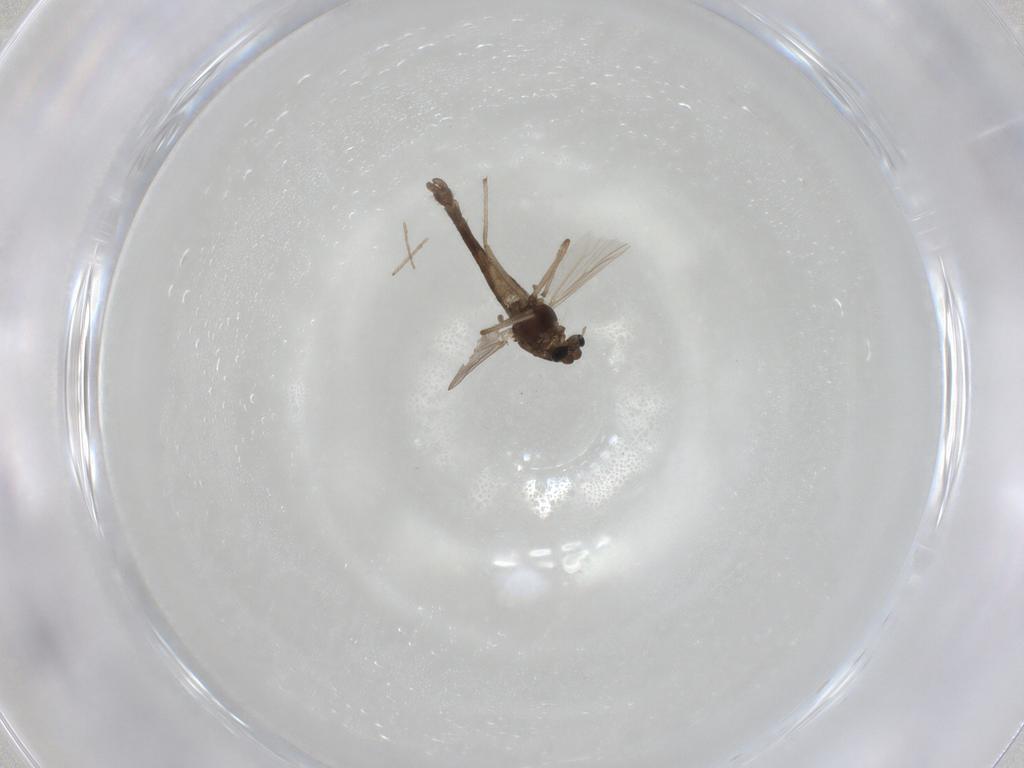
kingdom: Animalia
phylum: Arthropoda
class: Insecta
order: Diptera
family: Chironomidae
